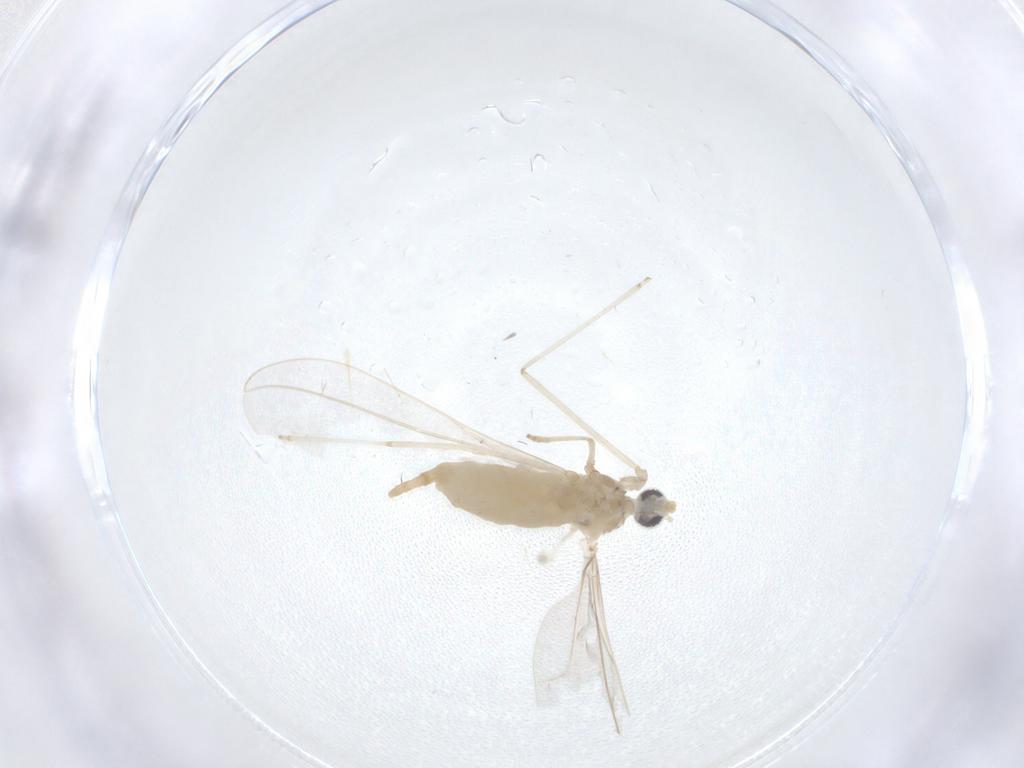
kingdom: Animalia
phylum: Arthropoda
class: Insecta
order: Diptera
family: Cecidomyiidae
